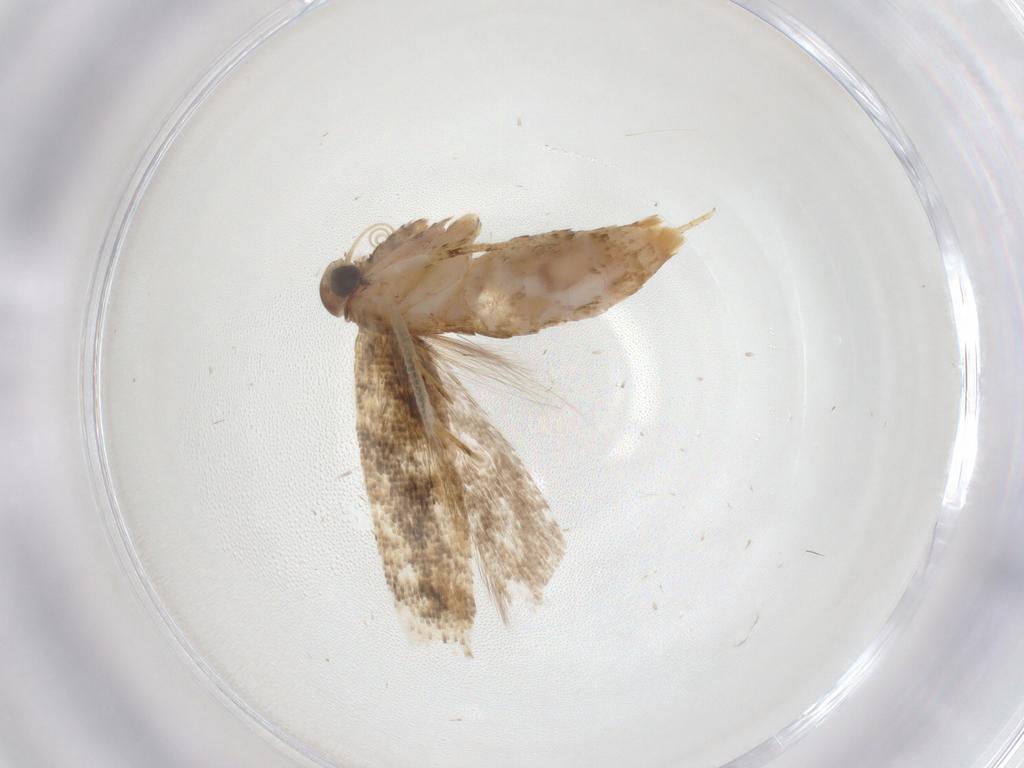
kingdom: Animalia
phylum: Arthropoda
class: Insecta
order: Lepidoptera
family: Gelechiidae
